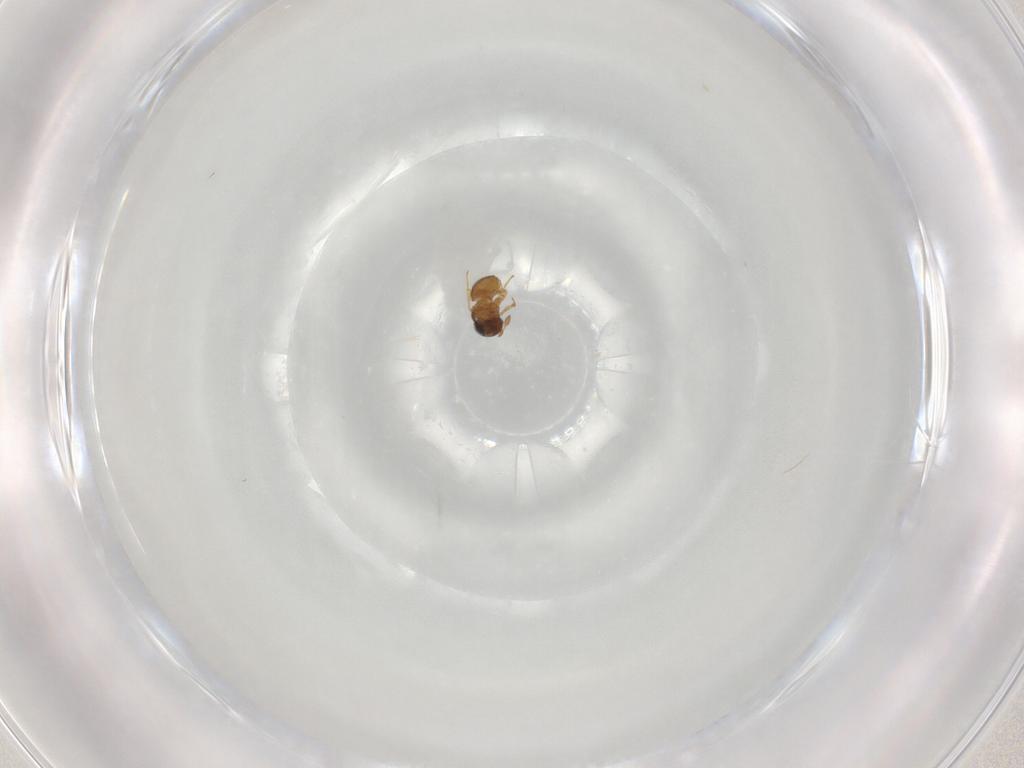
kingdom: Animalia
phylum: Arthropoda
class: Insecta
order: Hymenoptera
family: Scelionidae
